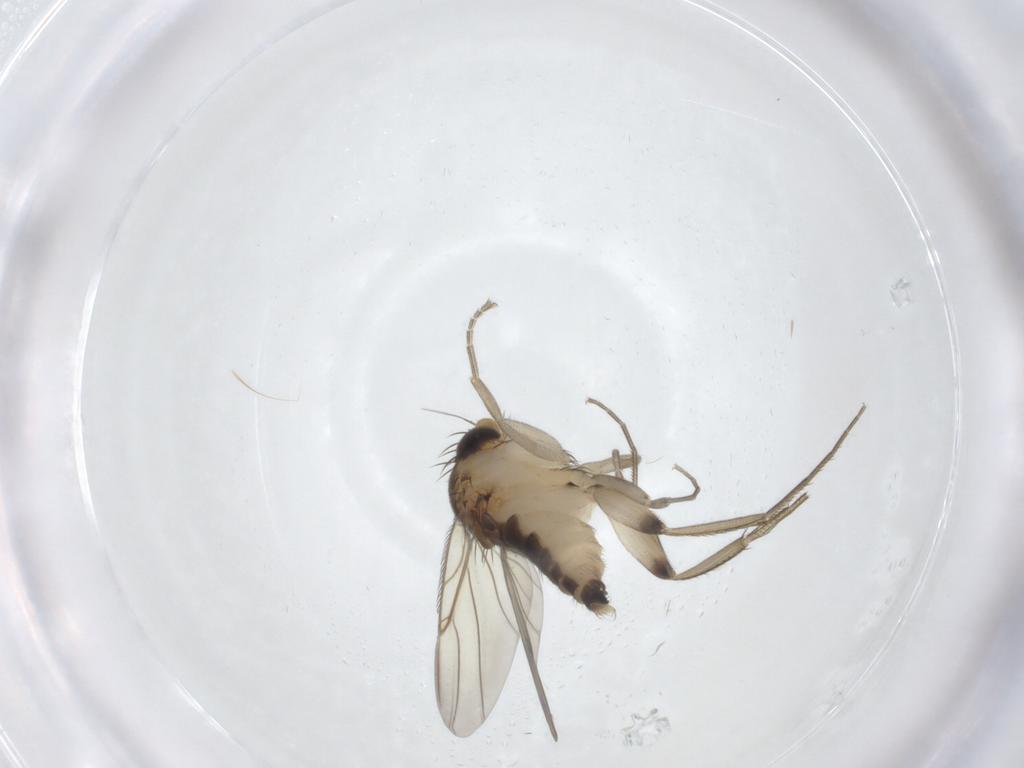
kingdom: Animalia
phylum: Arthropoda
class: Insecta
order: Diptera
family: Phoridae
